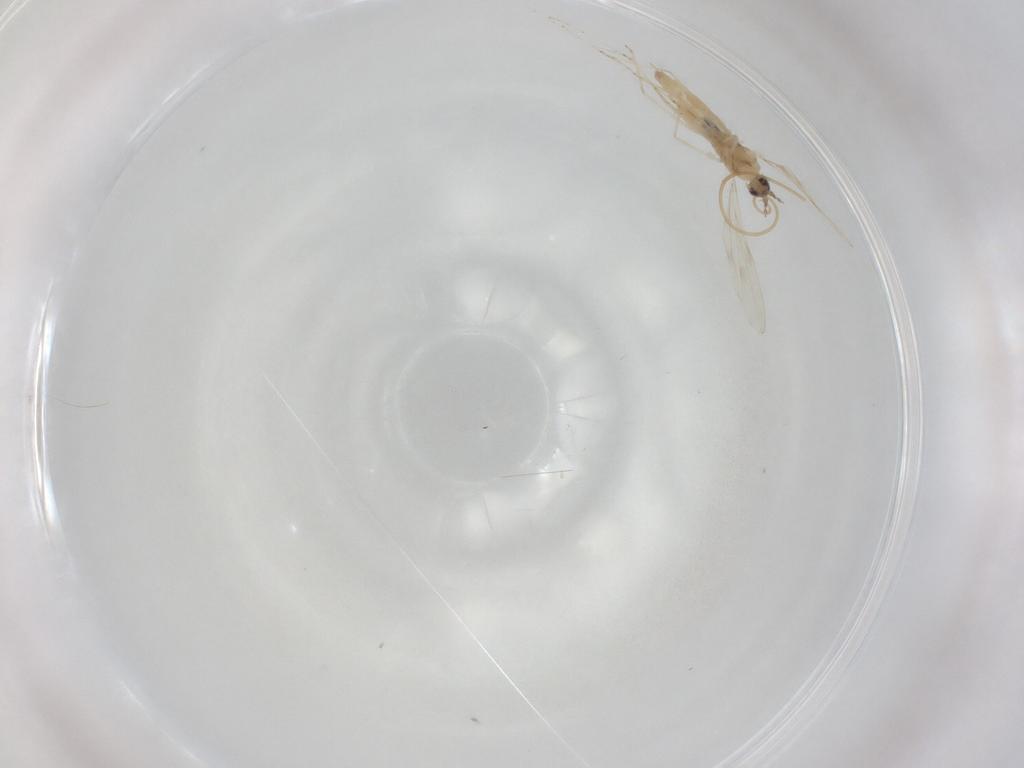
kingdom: Animalia
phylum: Arthropoda
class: Insecta
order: Diptera
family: Cecidomyiidae
